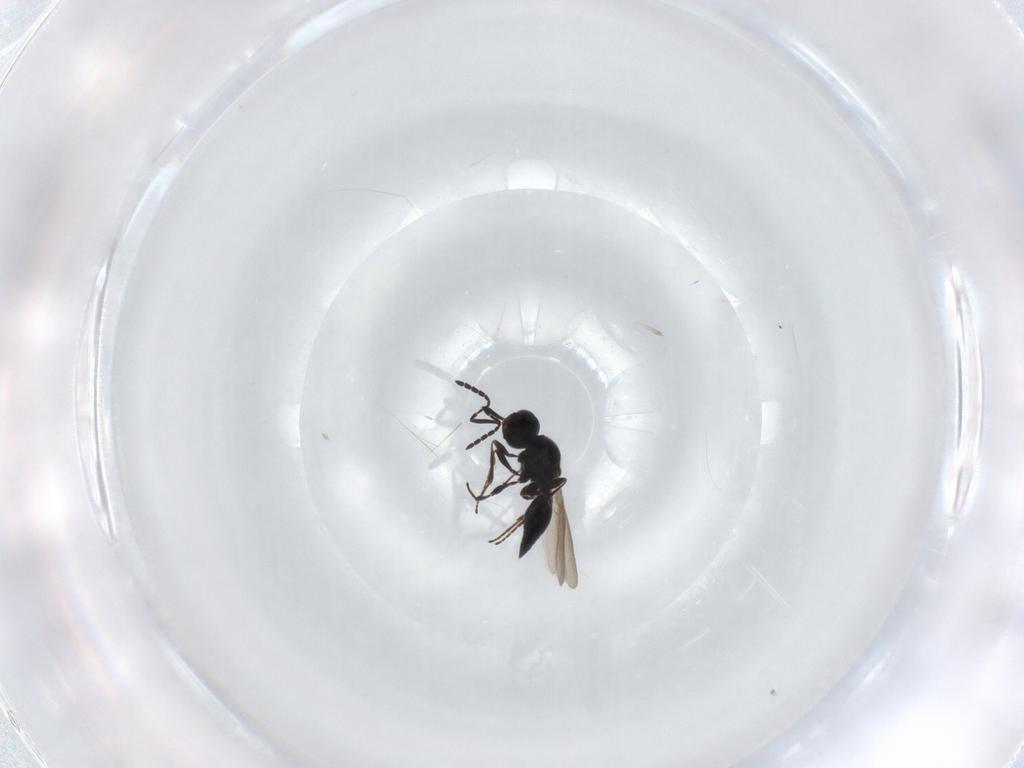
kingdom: Animalia
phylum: Arthropoda
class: Insecta
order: Hymenoptera
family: Platygastridae
